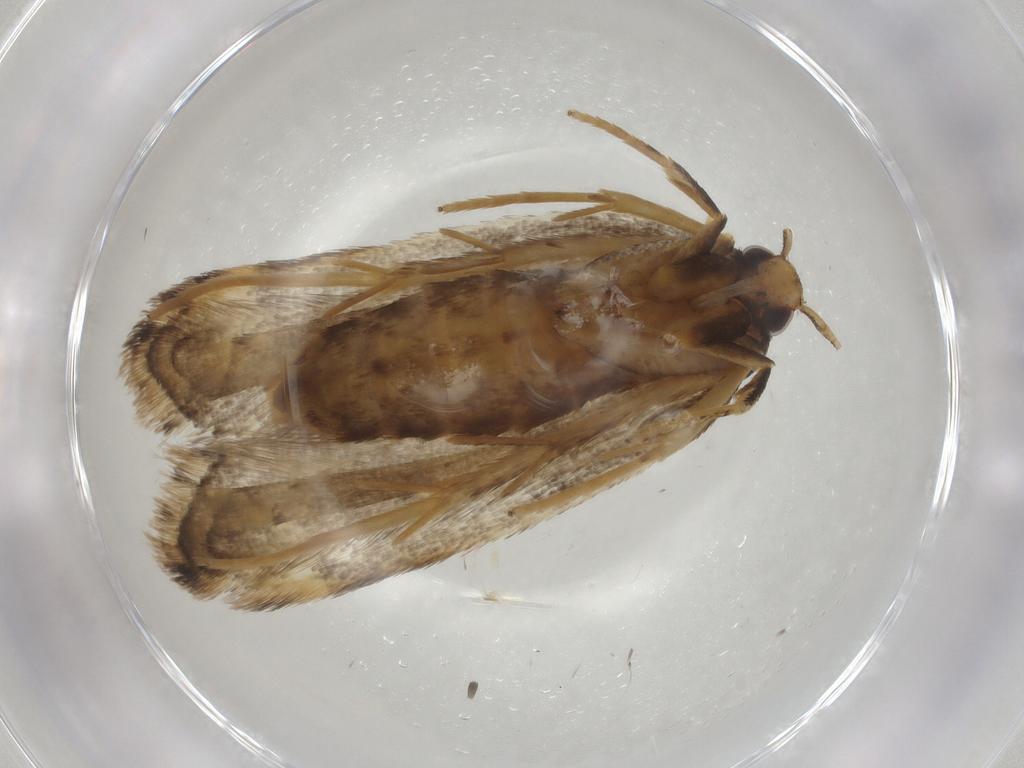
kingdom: Animalia
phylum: Arthropoda
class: Insecta
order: Lepidoptera
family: Lecithoceridae
